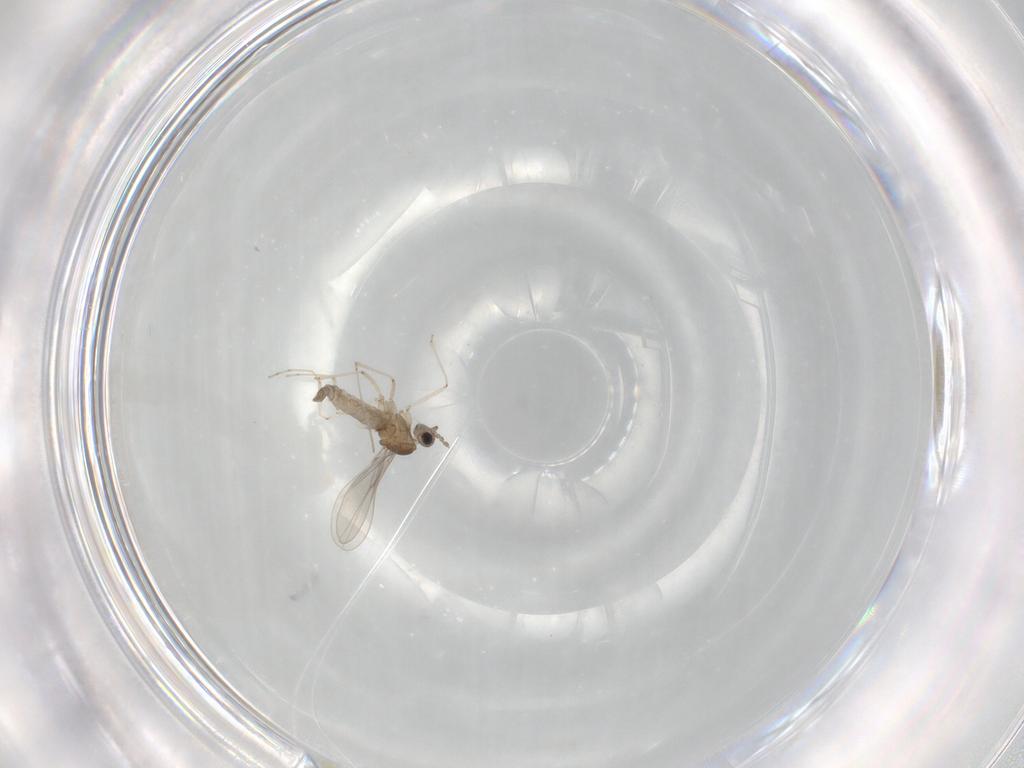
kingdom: Animalia
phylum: Arthropoda
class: Insecta
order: Diptera
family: Cecidomyiidae
